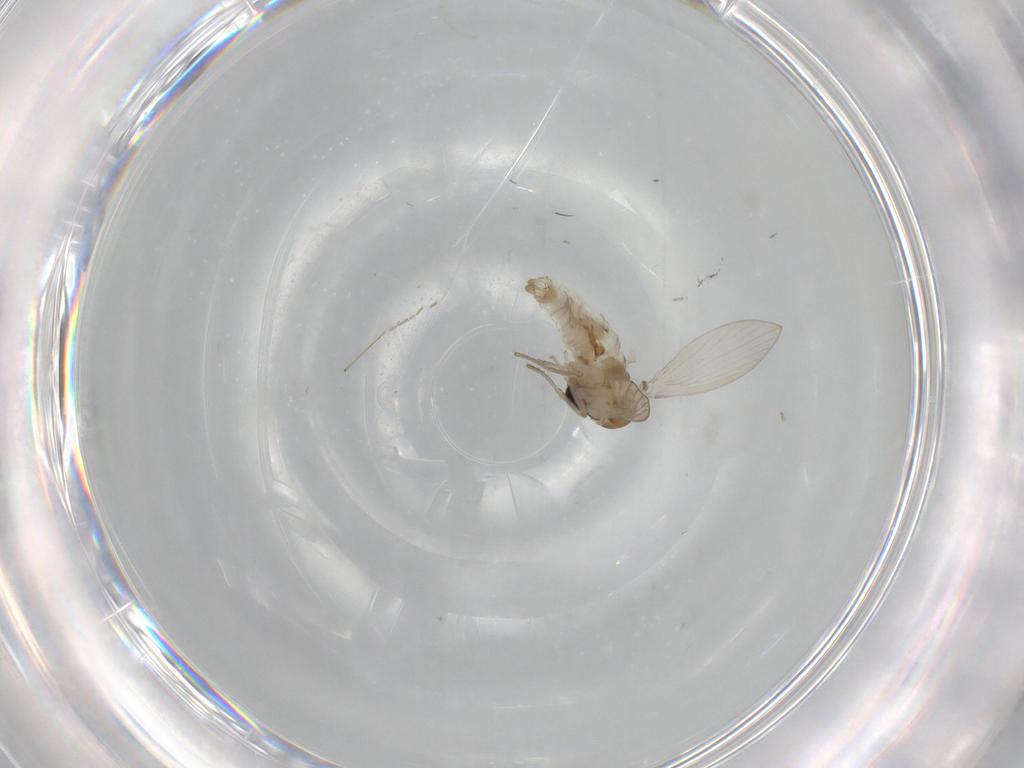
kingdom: Animalia
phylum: Arthropoda
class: Insecta
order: Diptera
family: Psychodidae
